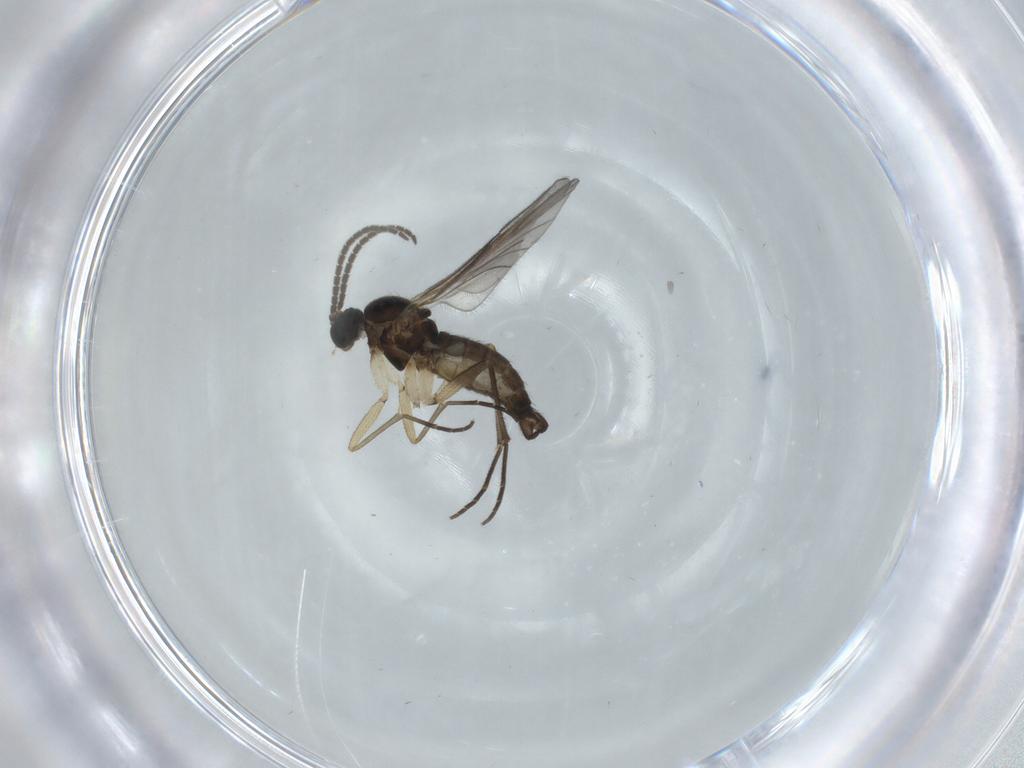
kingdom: Animalia
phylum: Arthropoda
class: Insecta
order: Diptera
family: Sciaridae
